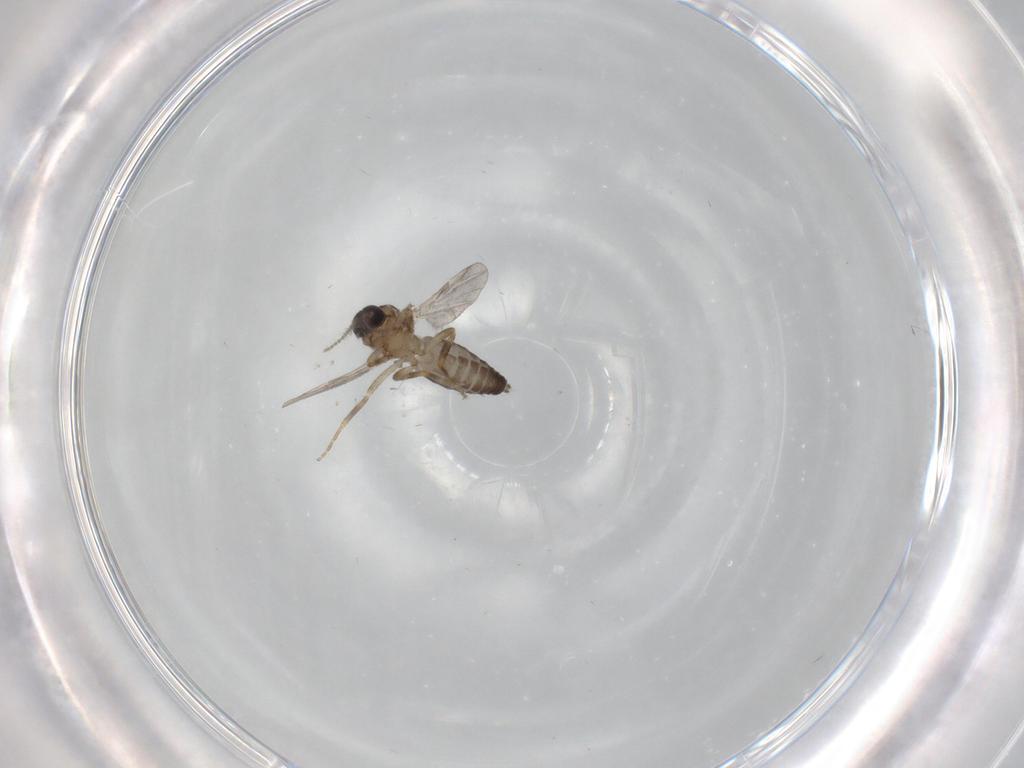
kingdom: Animalia
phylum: Arthropoda
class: Insecta
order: Diptera
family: Ceratopogonidae
